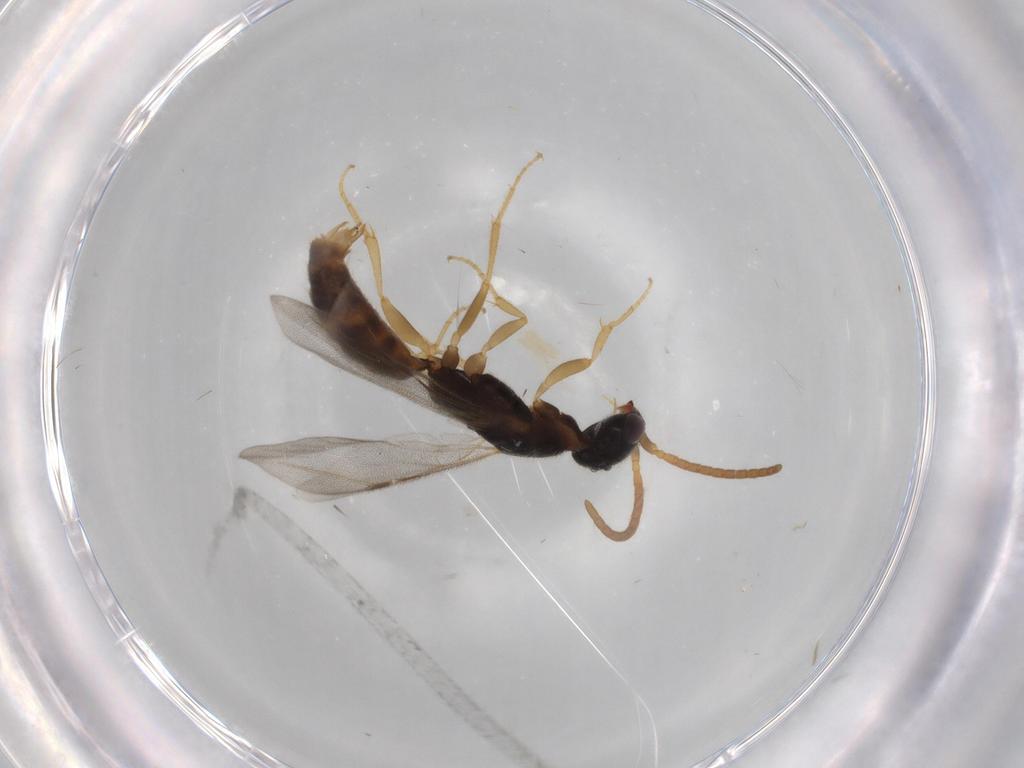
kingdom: Animalia
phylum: Arthropoda
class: Insecta
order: Hymenoptera
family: Bethylidae
